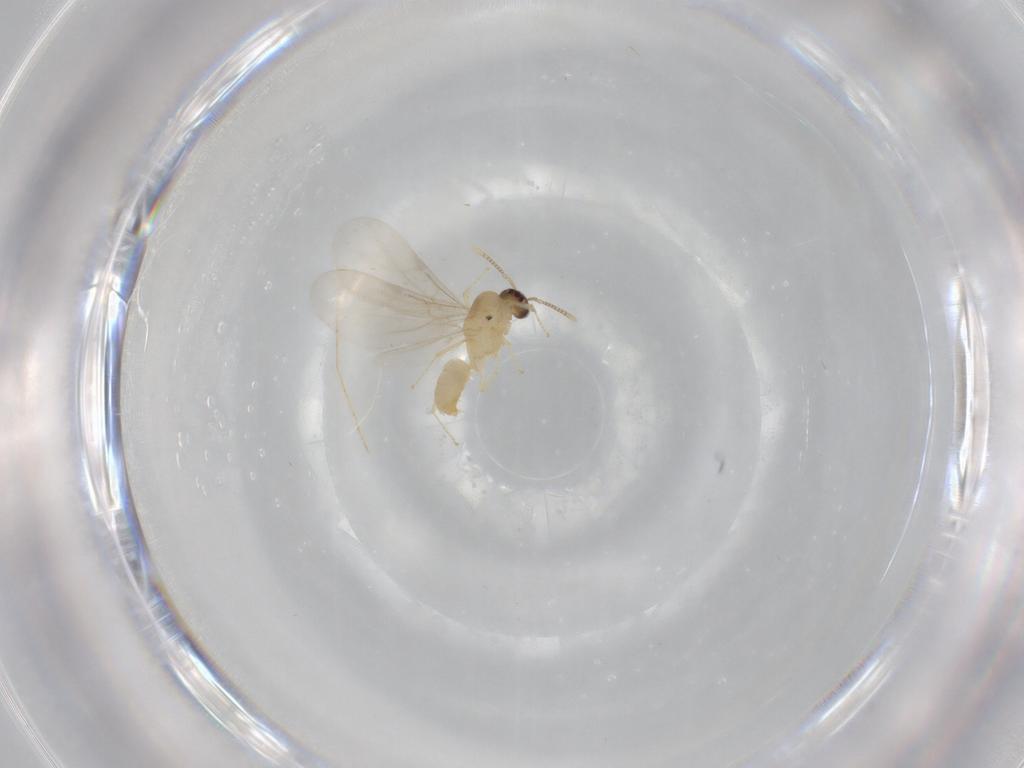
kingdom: Animalia
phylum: Arthropoda
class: Insecta
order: Hymenoptera
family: Formicidae
